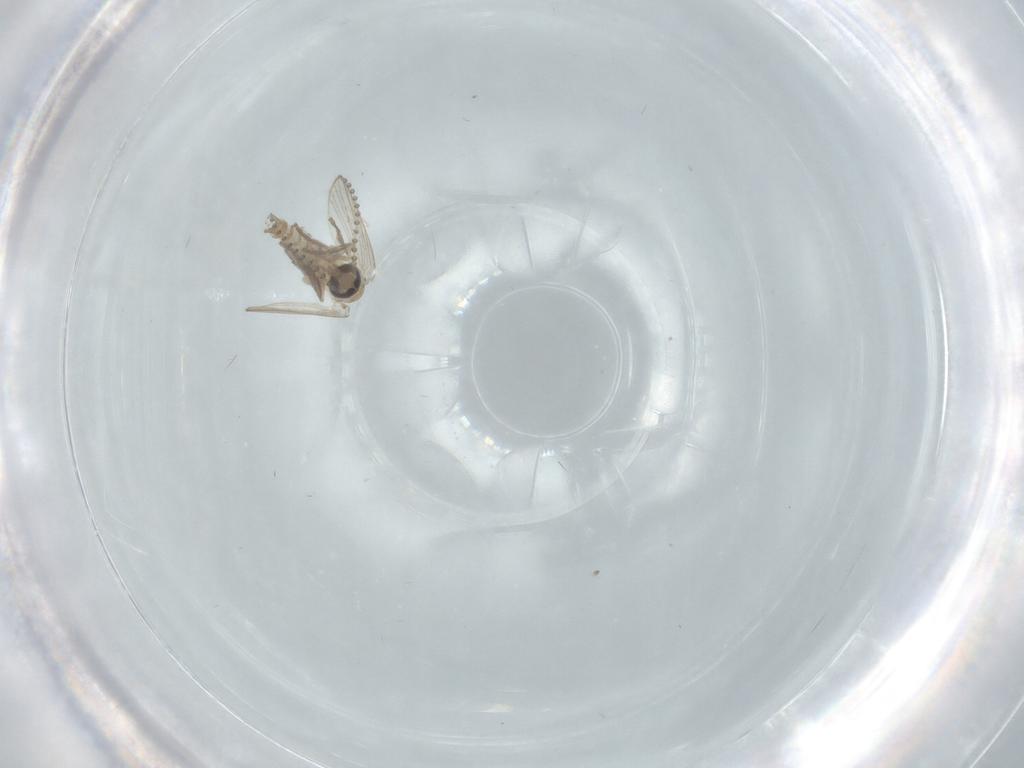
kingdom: Animalia
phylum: Arthropoda
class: Insecta
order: Diptera
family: Psychodidae
